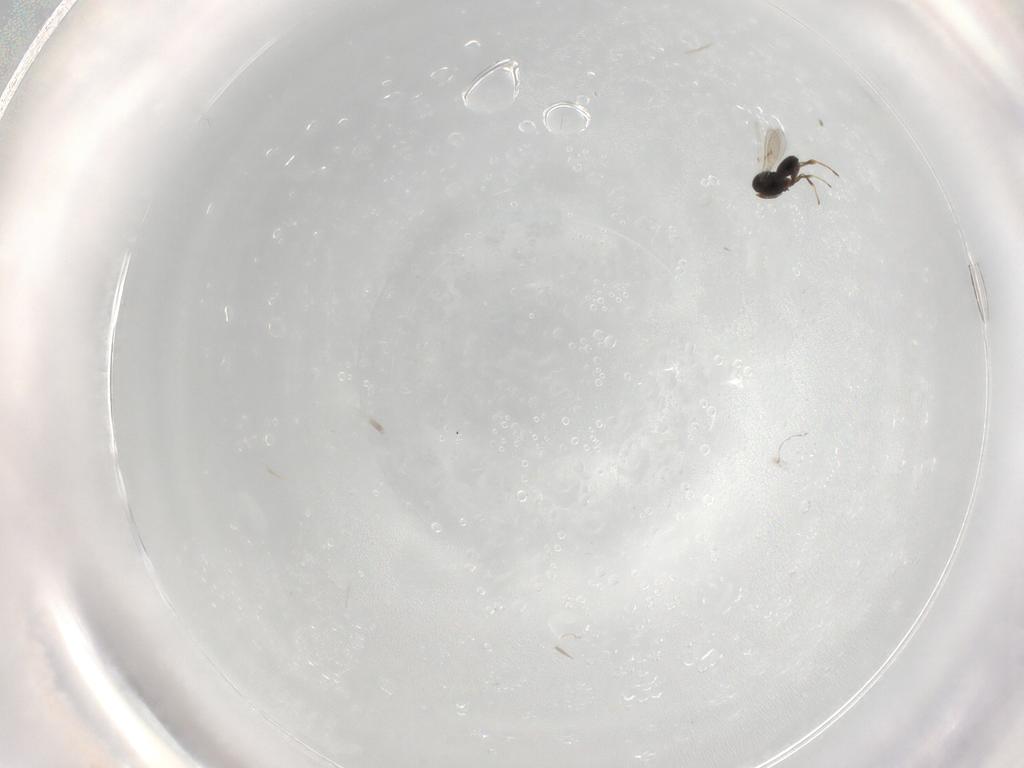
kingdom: Animalia
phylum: Arthropoda
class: Insecta
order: Hymenoptera
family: Scelionidae
